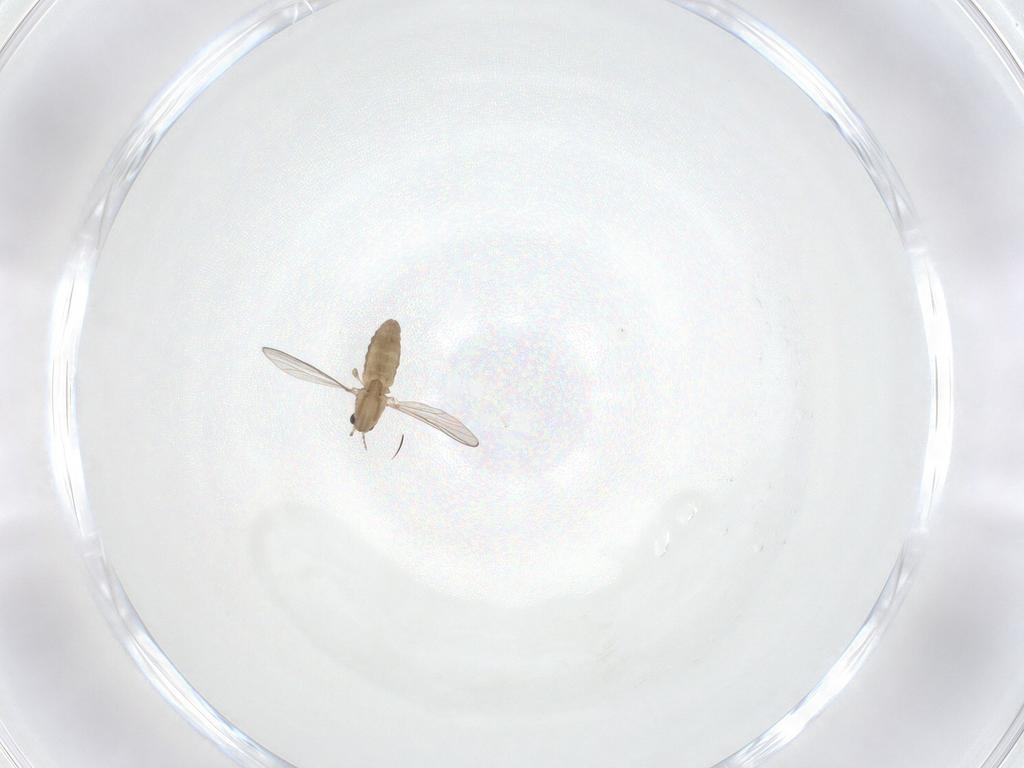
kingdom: Animalia
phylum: Arthropoda
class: Insecta
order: Diptera
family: Chironomidae
